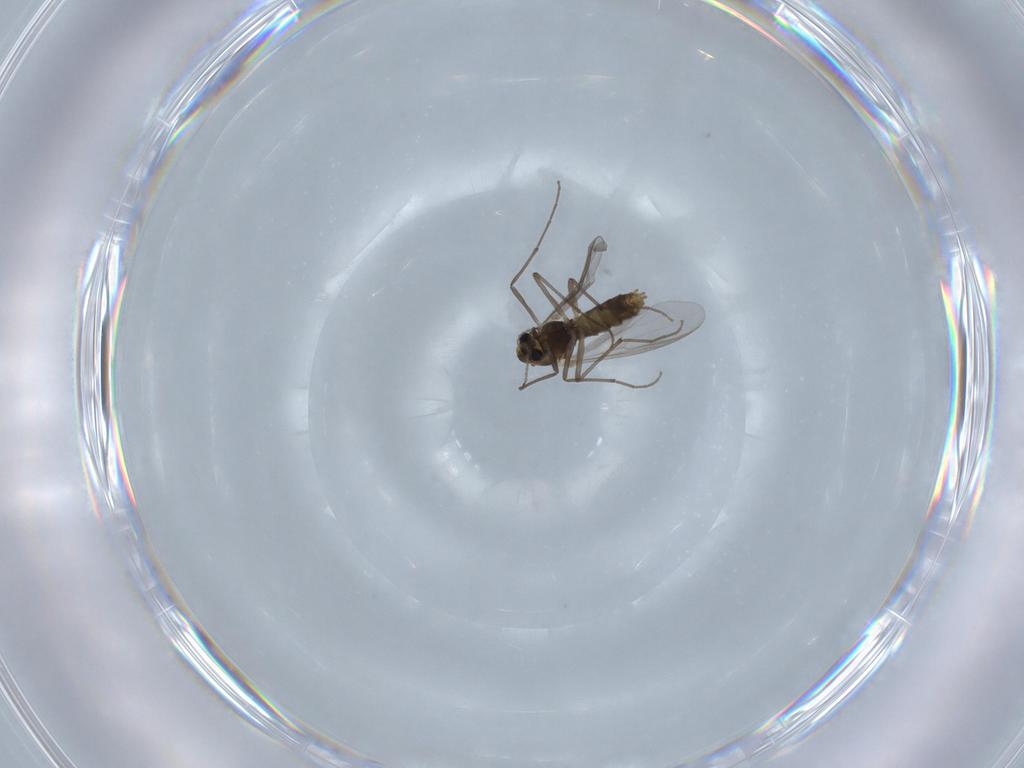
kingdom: Animalia
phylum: Arthropoda
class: Insecta
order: Diptera
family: Chironomidae
